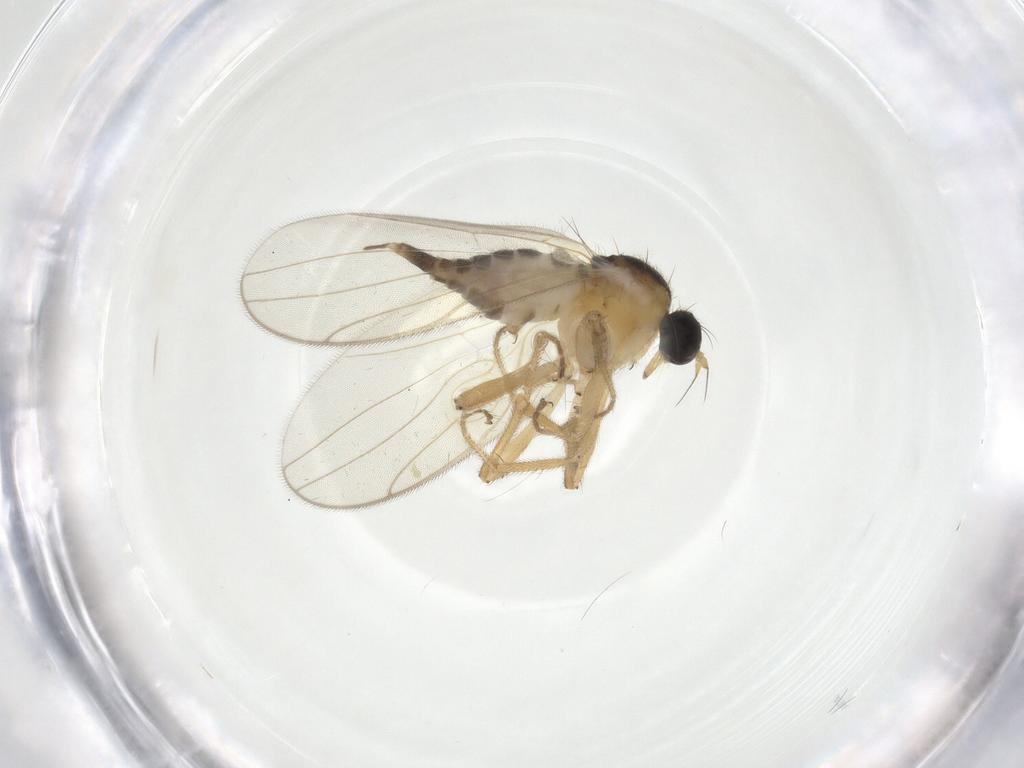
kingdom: Animalia
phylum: Arthropoda
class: Insecta
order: Diptera
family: Hybotidae
